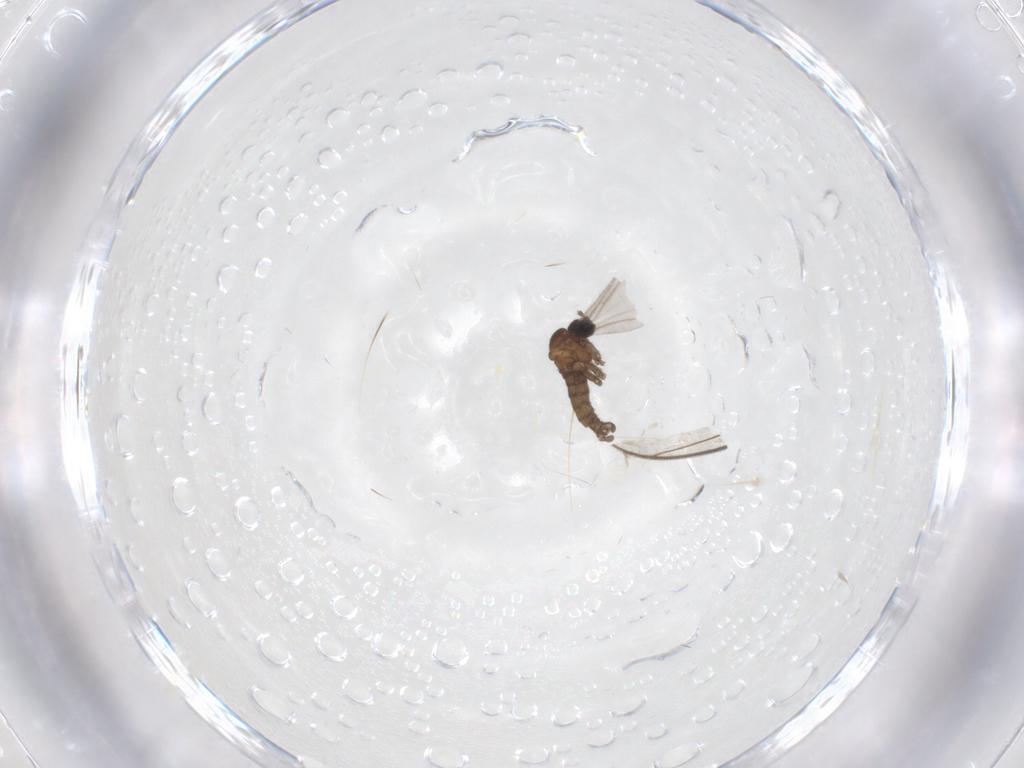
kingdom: Animalia
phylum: Arthropoda
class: Insecta
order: Diptera
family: Sciaridae
